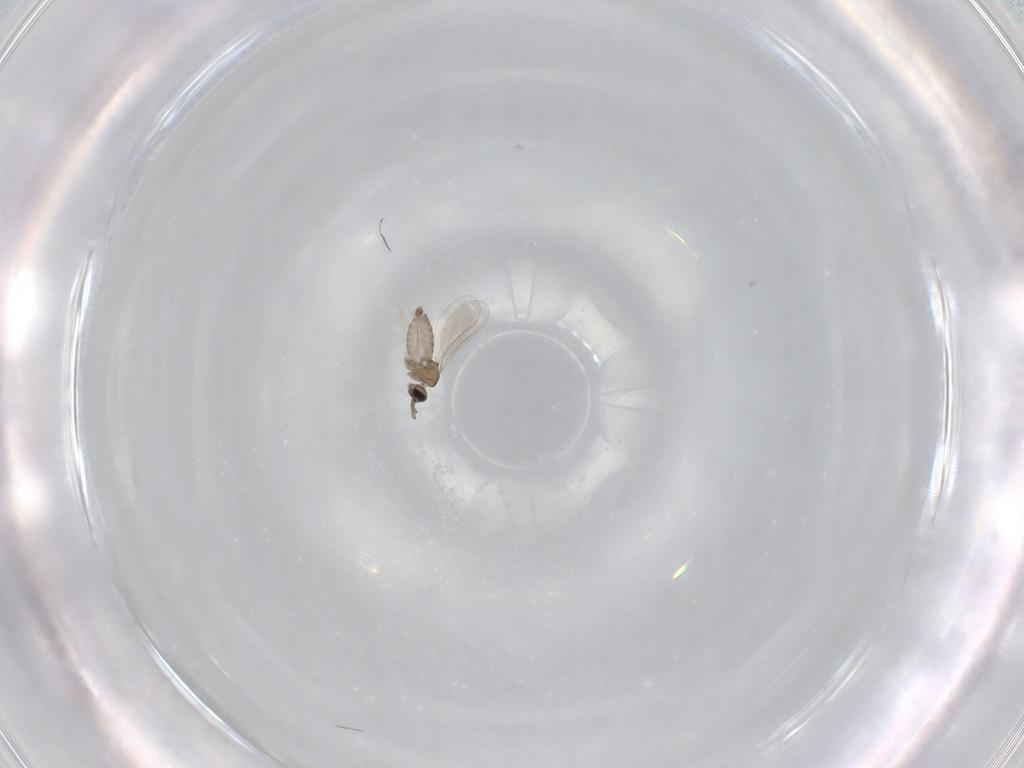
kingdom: Animalia
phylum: Arthropoda
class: Insecta
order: Diptera
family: Cecidomyiidae
